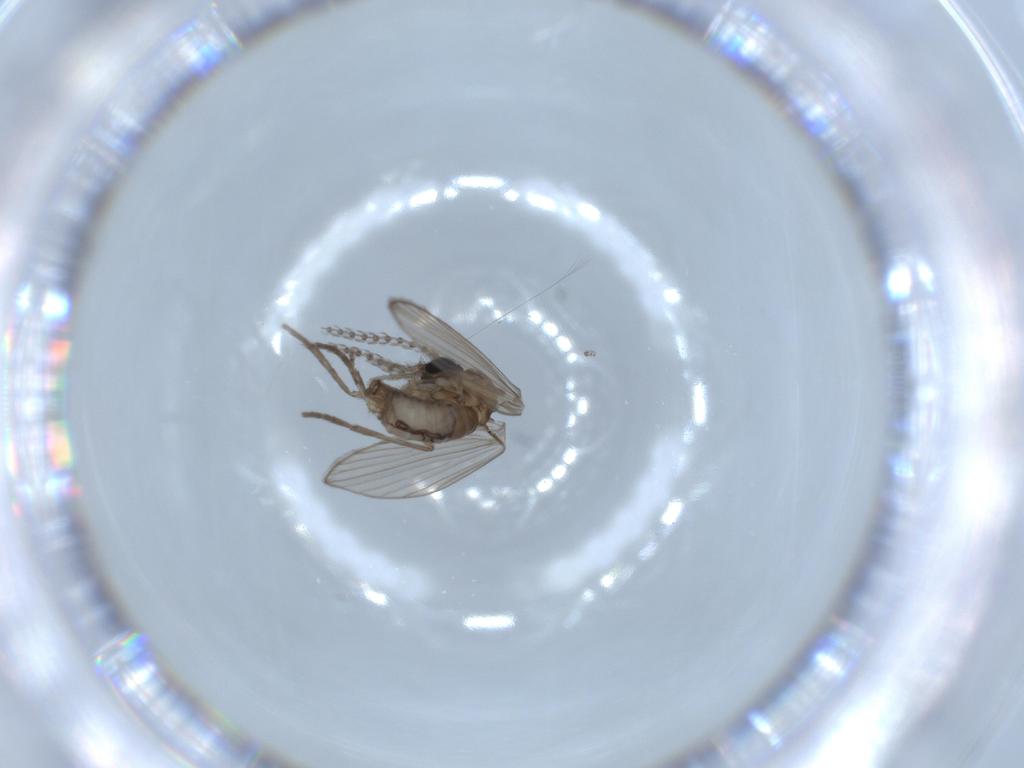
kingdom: Animalia
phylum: Arthropoda
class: Insecta
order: Diptera
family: Psychodidae
